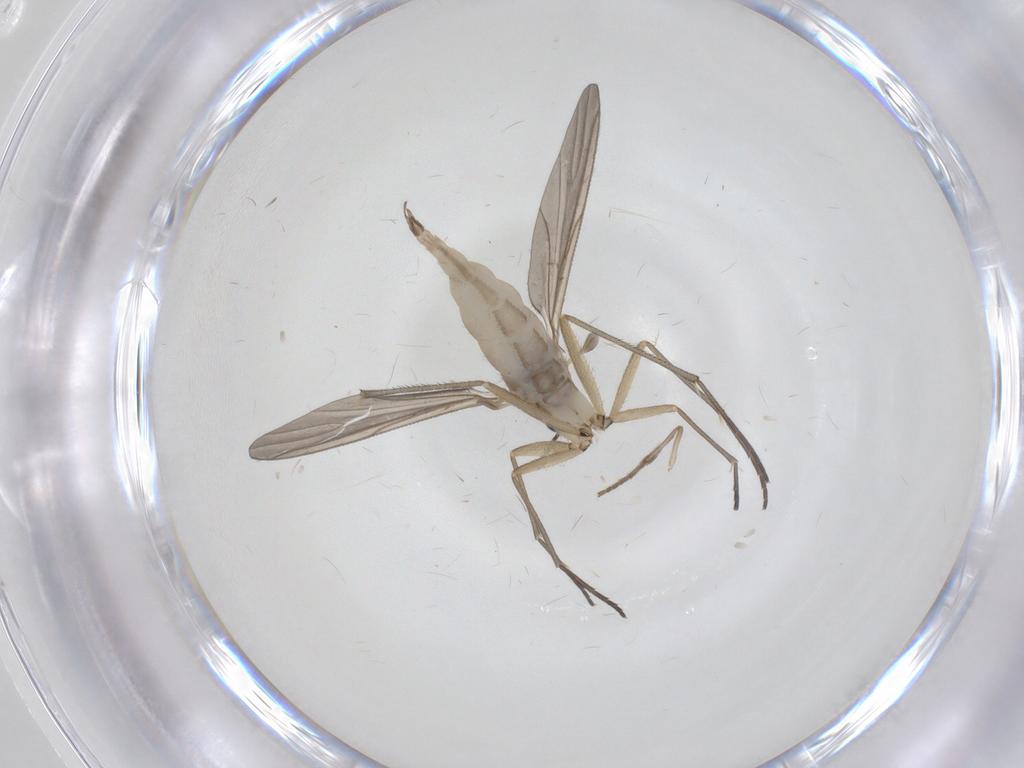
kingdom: Animalia
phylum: Arthropoda
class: Insecta
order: Diptera
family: Sciaridae
